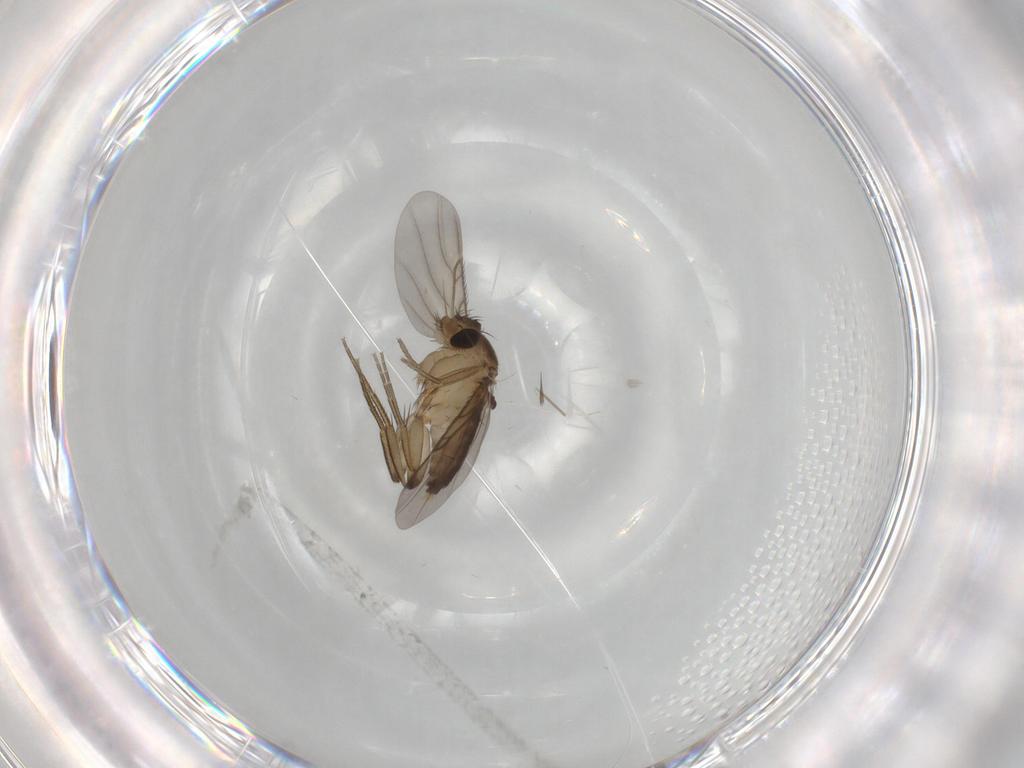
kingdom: Animalia
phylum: Arthropoda
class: Insecta
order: Diptera
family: Phoridae
